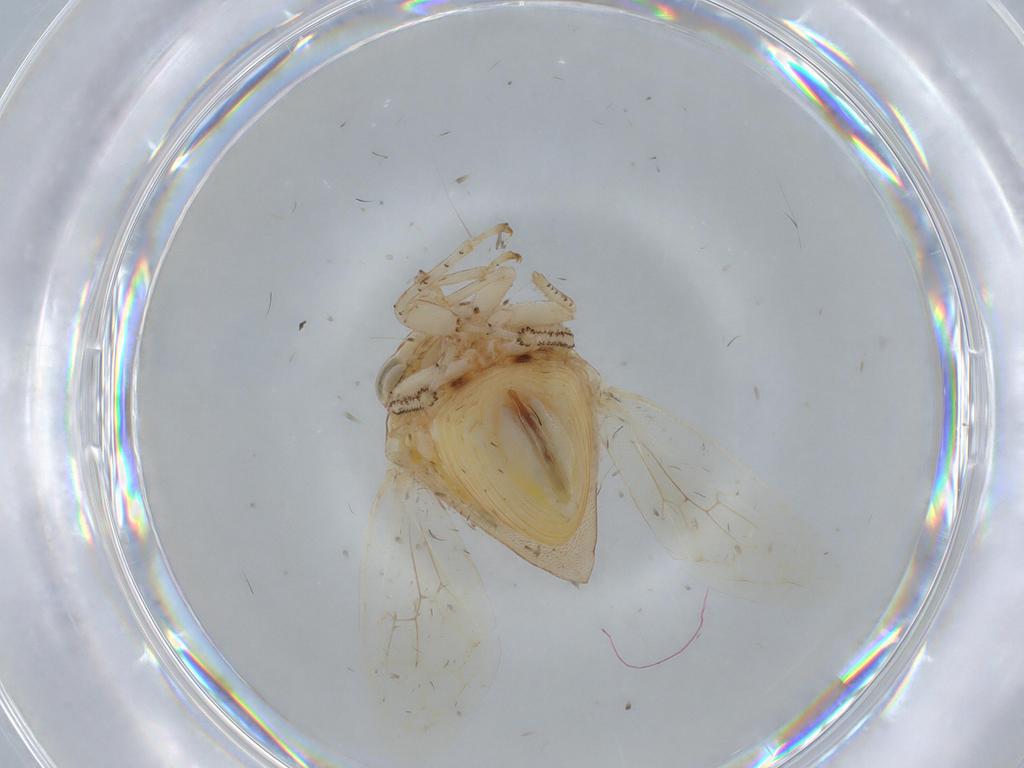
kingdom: Animalia
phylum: Arthropoda
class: Insecta
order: Hemiptera
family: Membracidae
